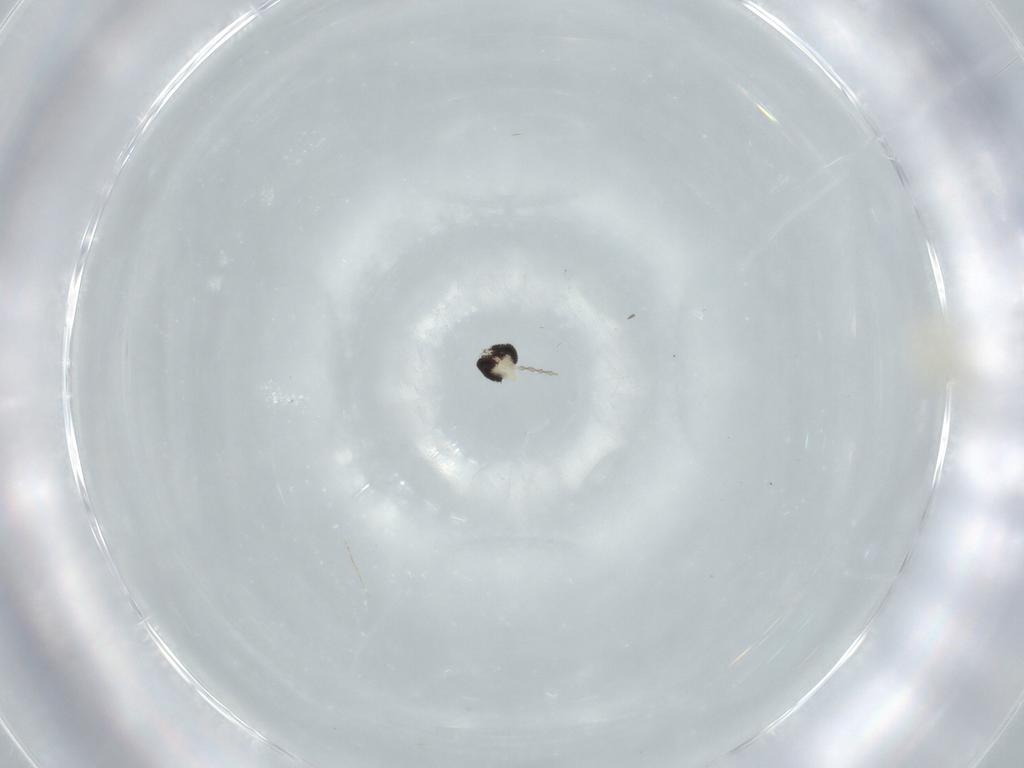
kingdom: Animalia
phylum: Arthropoda
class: Insecta
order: Diptera
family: Cecidomyiidae
